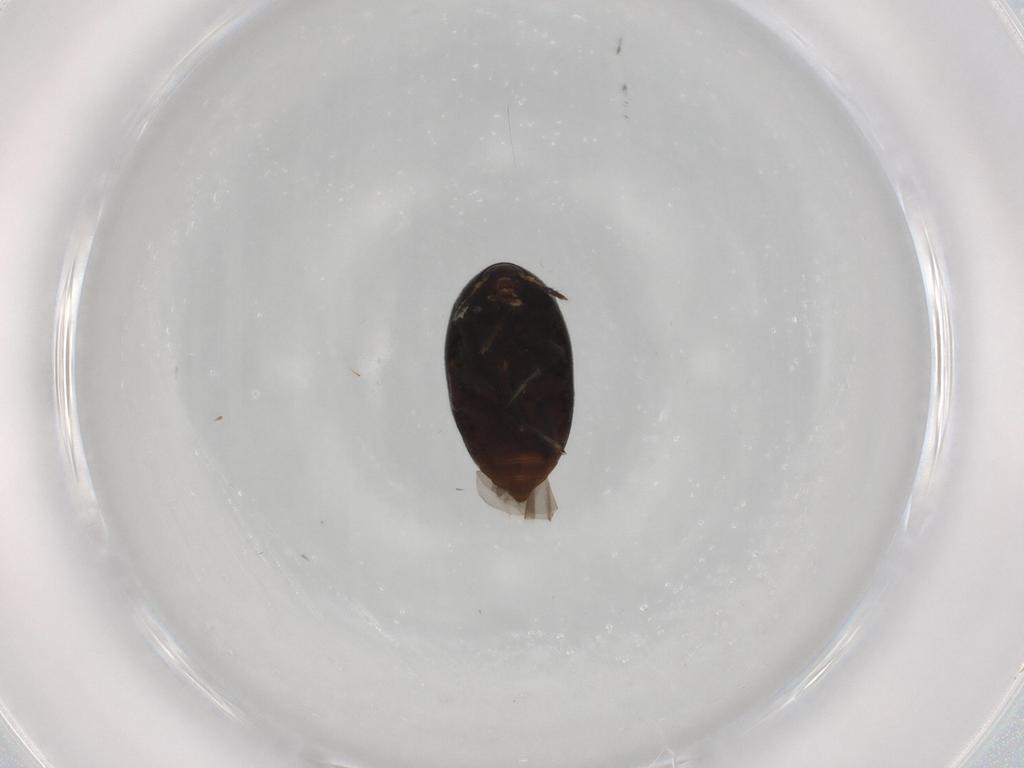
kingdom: Animalia
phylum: Arthropoda
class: Insecta
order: Coleoptera
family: Melandryidae
